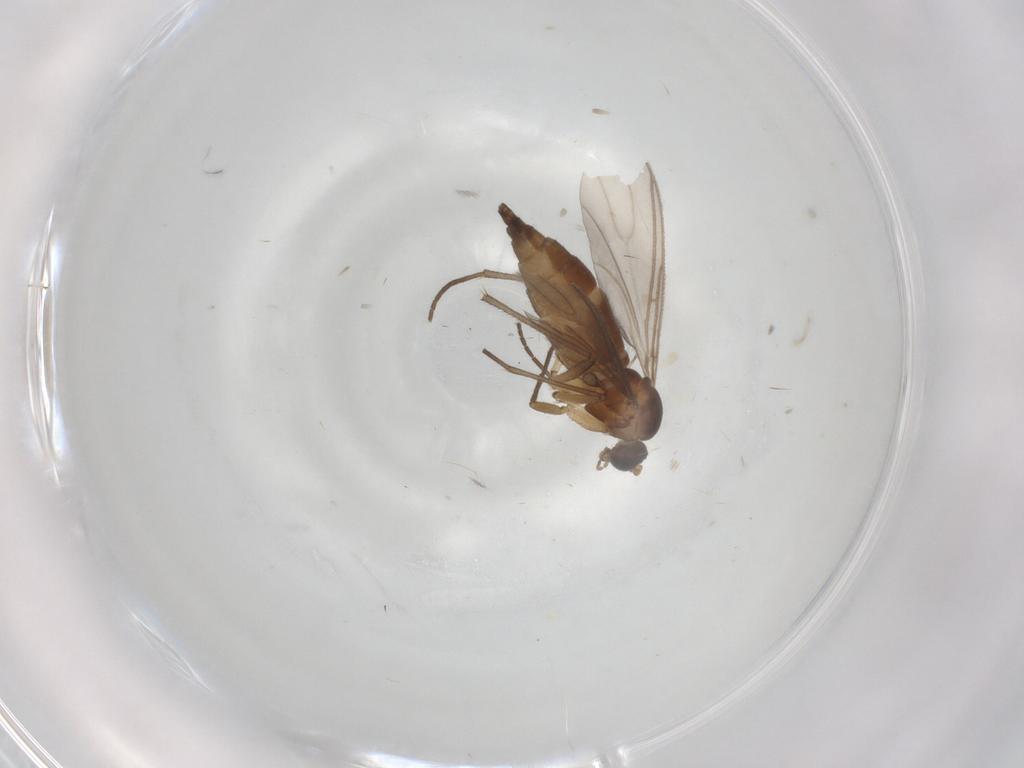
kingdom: Animalia
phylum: Arthropoda
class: Insecta
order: Diptera
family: Sciaridae
